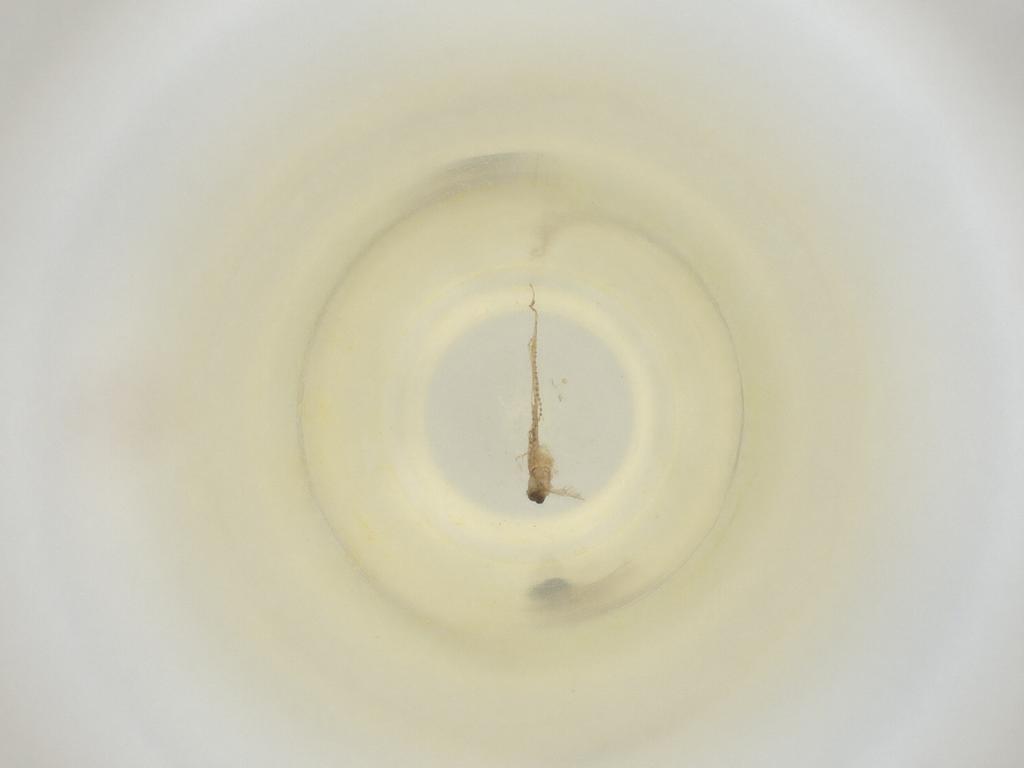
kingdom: Animalia
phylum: Arthropoda
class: Insecta
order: Diptera
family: Cecidomyiidae
